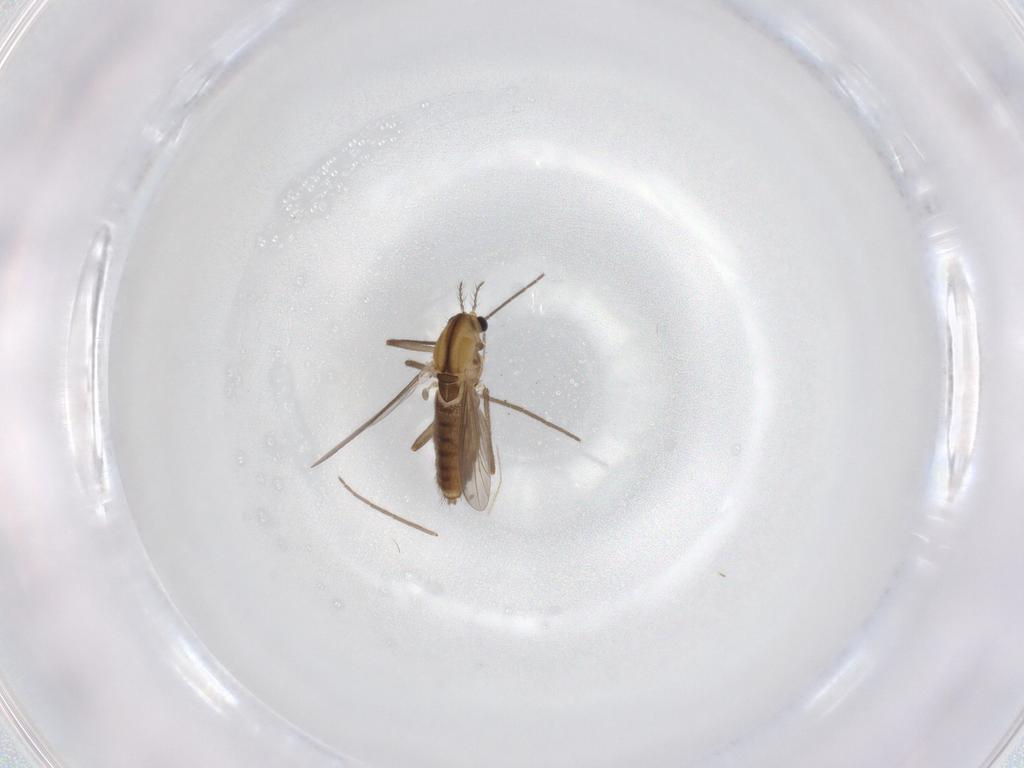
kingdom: Animalia
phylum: Arthropoda
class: Insecta
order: Diptera
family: Chironomidae
